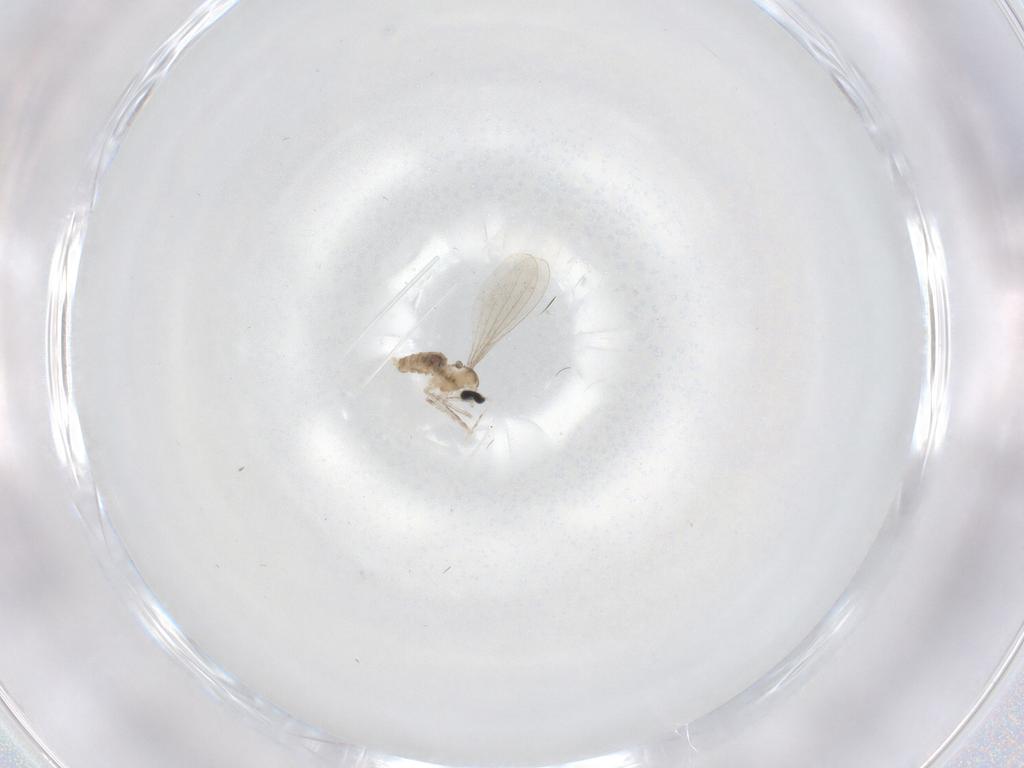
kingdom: Animalia
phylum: Arthropoda
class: Insecta
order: Diptera
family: Cecidomyiidae
